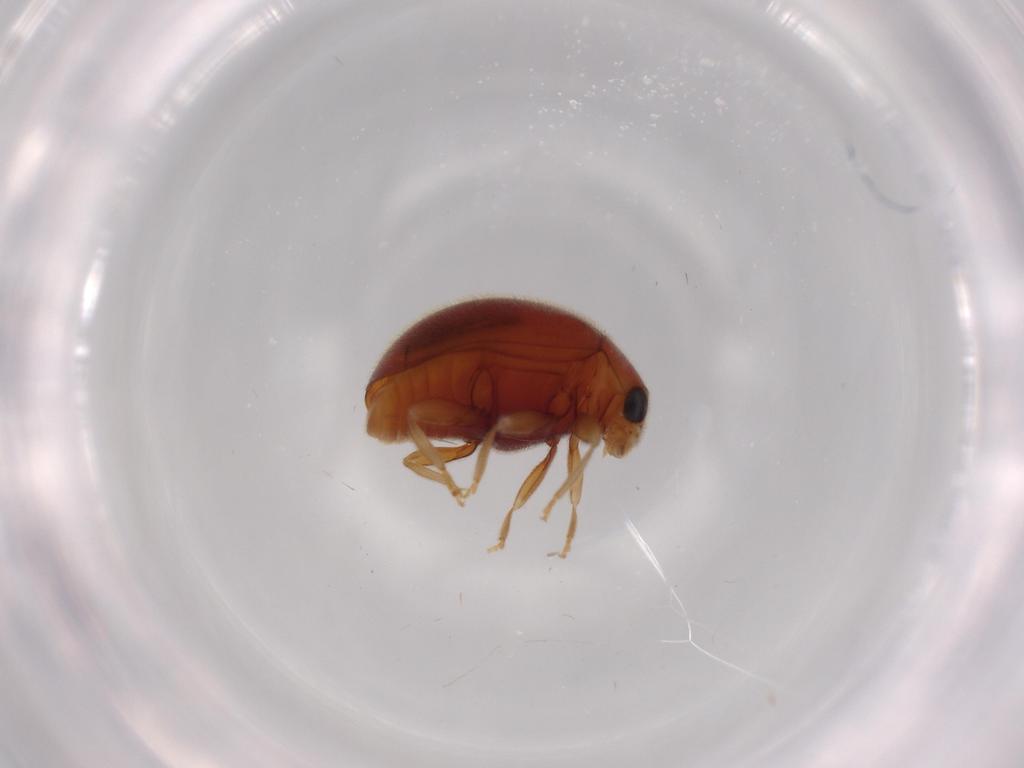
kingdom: Animalia
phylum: Arthropoda
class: Insecta
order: Coleoptera
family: Coccinellidae
